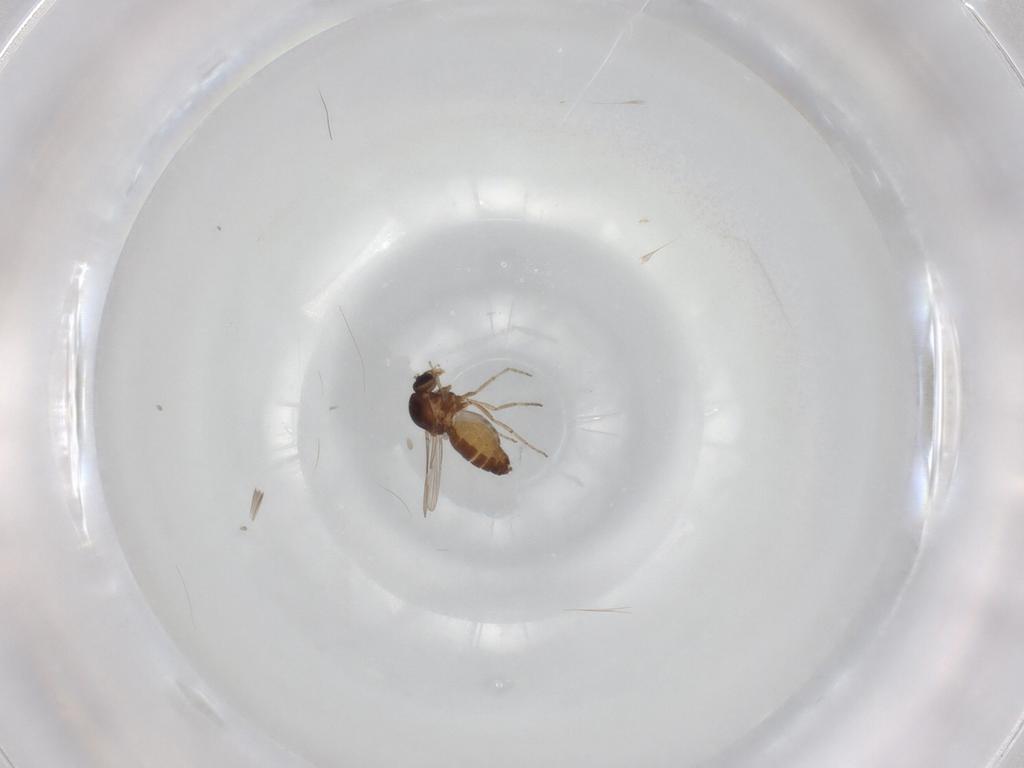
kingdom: Animalia
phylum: Arthropoda
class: Insecta
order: Diptera
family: Ceratopogonidae
